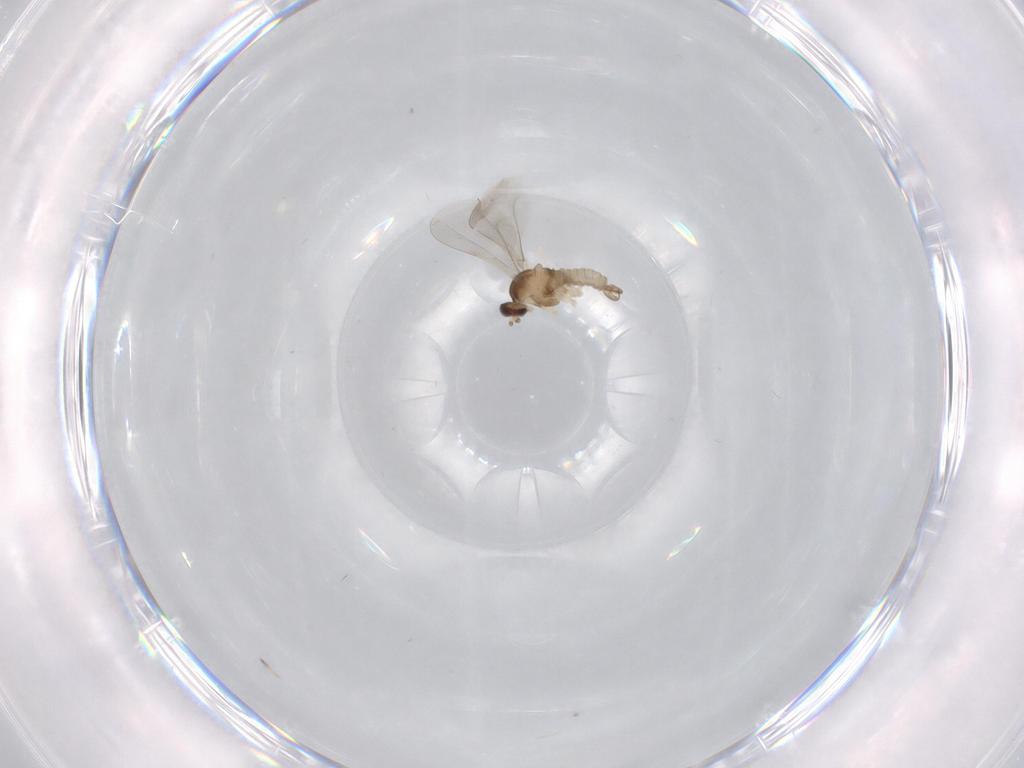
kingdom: Animalia
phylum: Arthropoda
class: Insecta
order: Diptera
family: Cecidomyiidae
